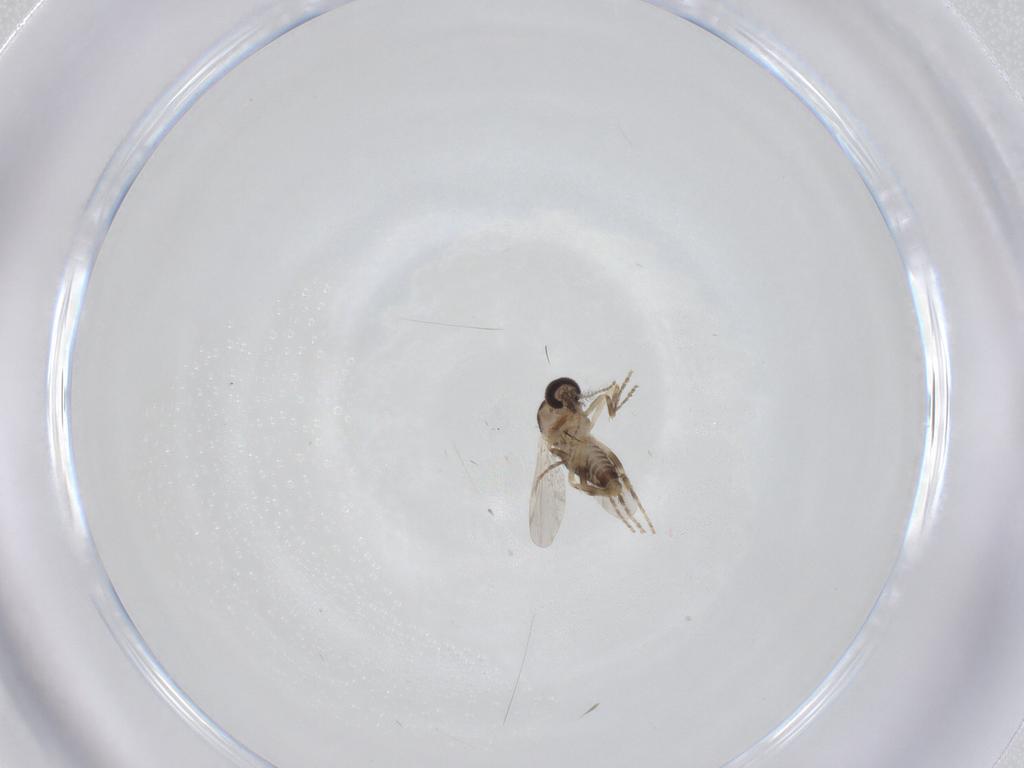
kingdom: Animalia
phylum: Arthropoda
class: Insecta
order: Diptera
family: Ceratopogonidae
